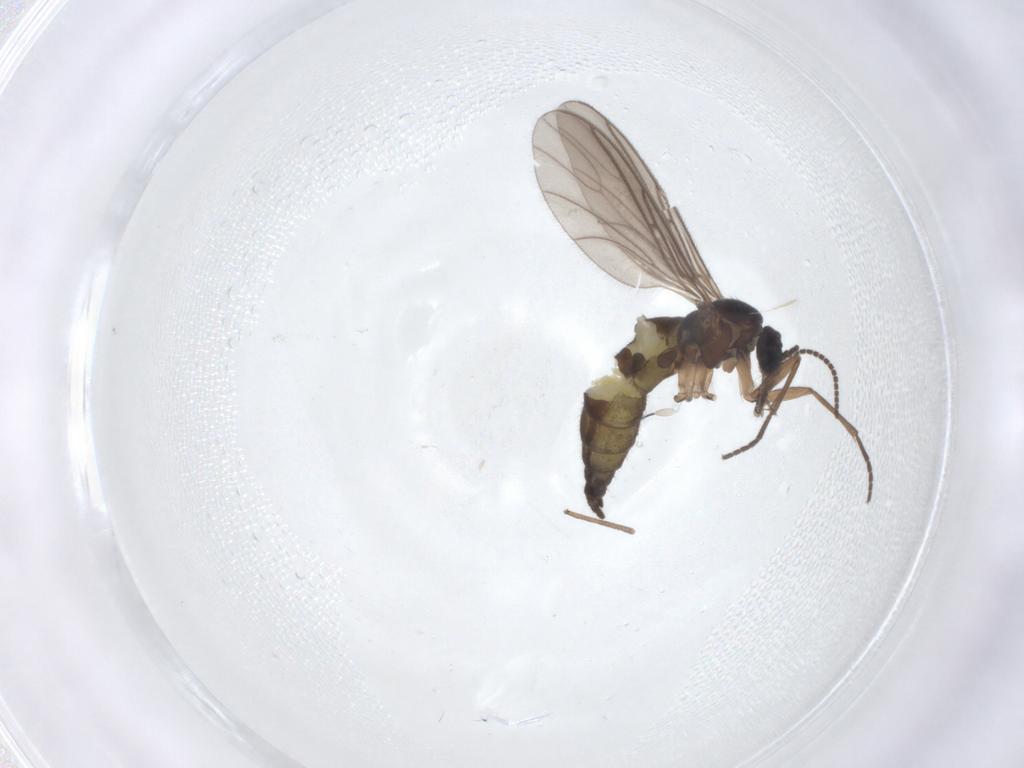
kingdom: Animalia
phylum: Arthropoda
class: Insecta
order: Diptera
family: Sciaridae
